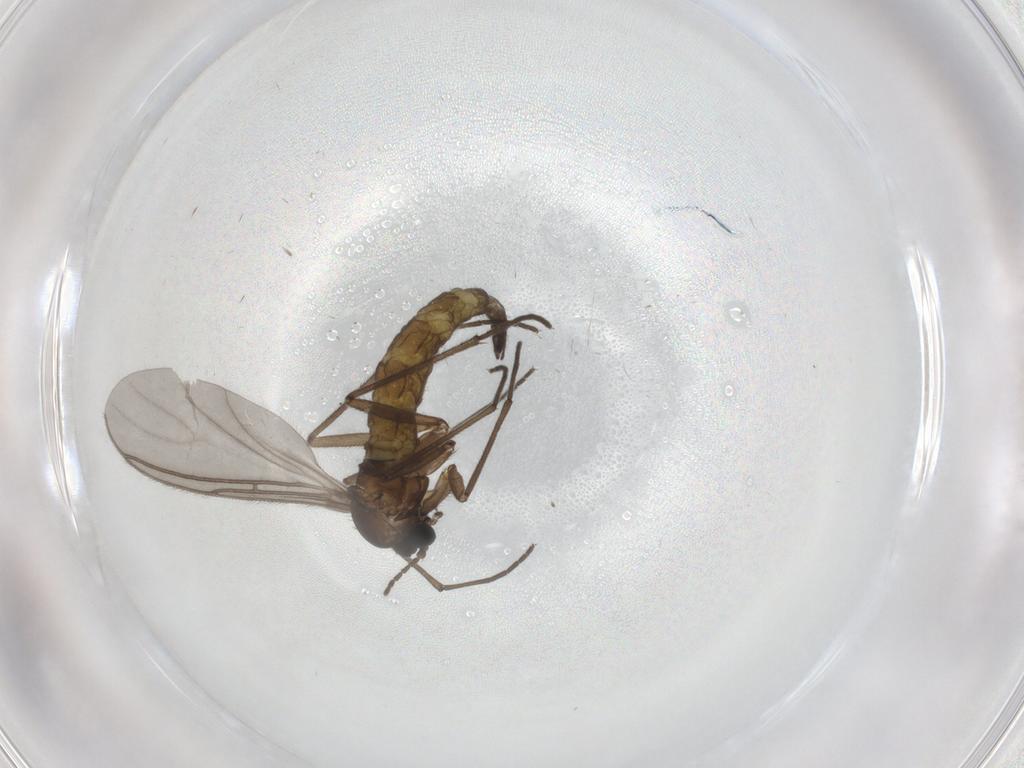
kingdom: Animalia
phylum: Arthropoda
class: Insecta
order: Diptera
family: Sciaridae
